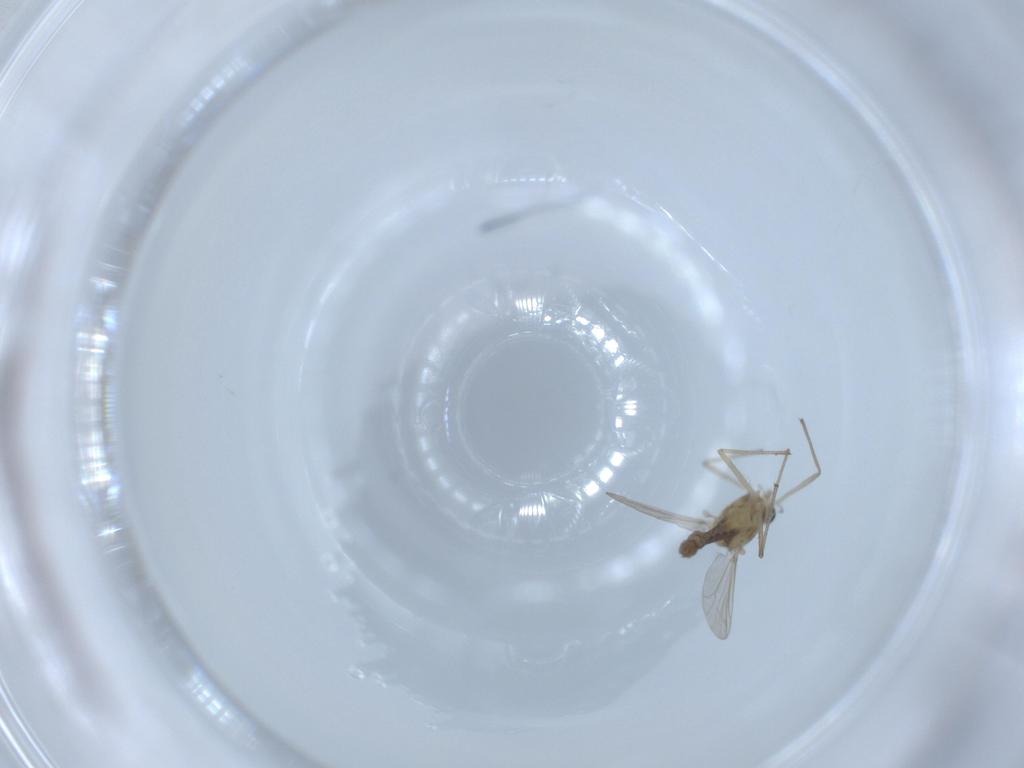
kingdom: Animalia
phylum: Arthropoda
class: Insecta
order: Diptera
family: Chironomidae
